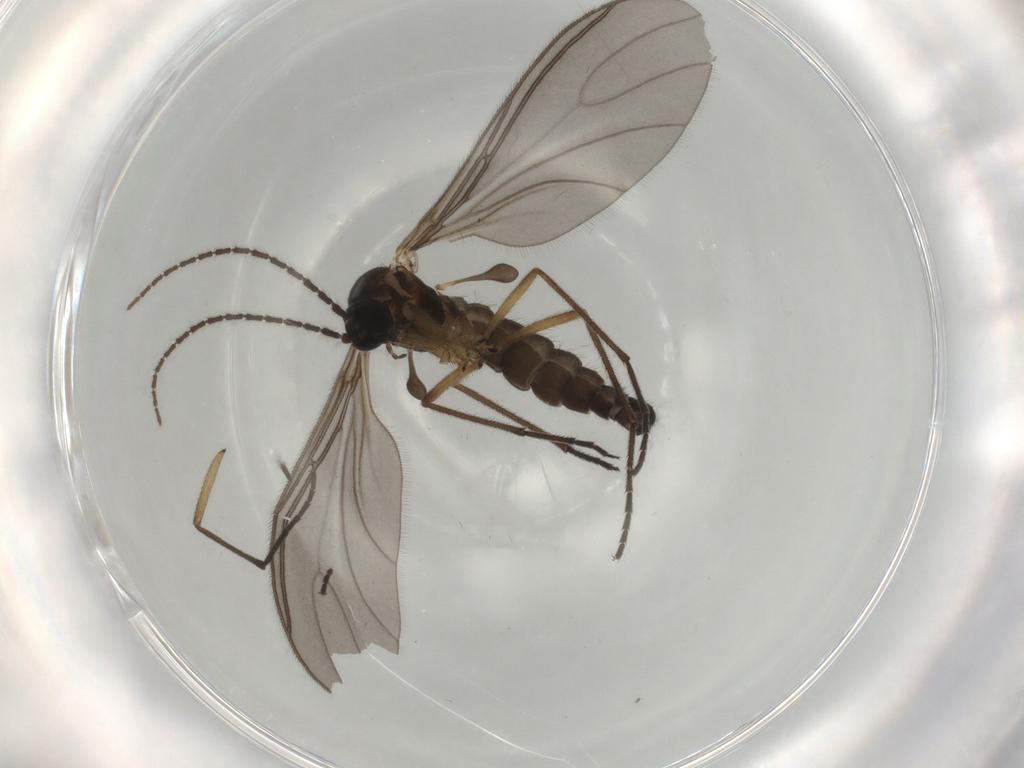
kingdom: Animalia
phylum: Arthropoda
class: Insecta
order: Diptera
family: Sciaridae
